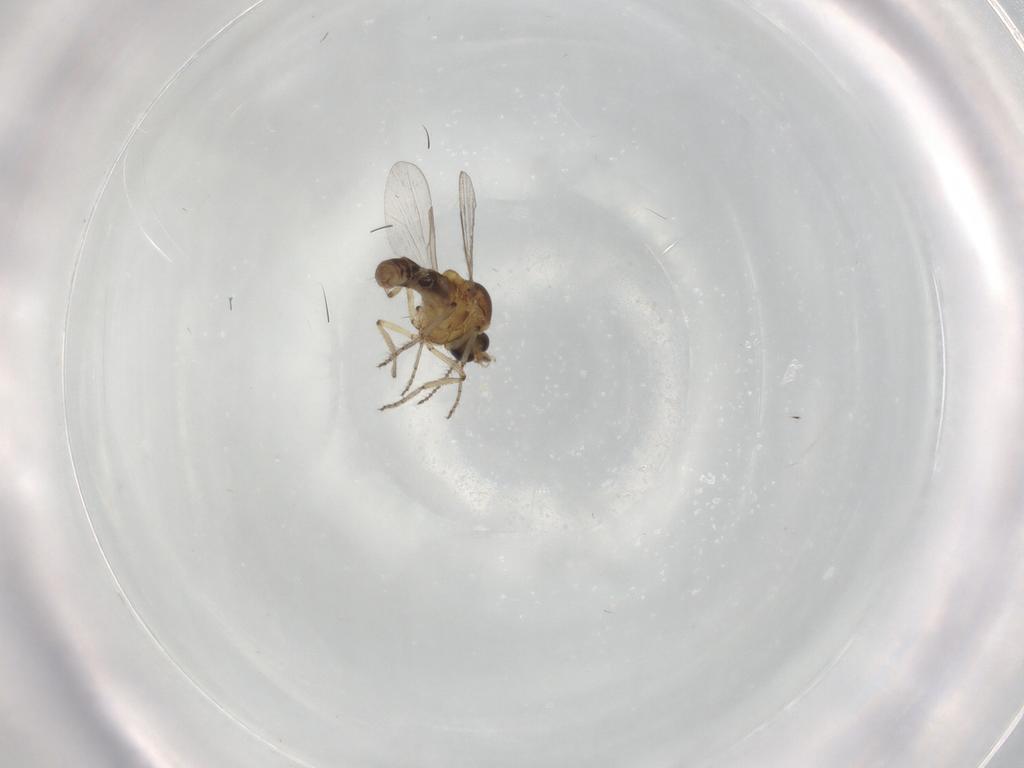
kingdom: Animalia
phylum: Arthropoda
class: Insecta
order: Diptera
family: Ceratopogonidae
